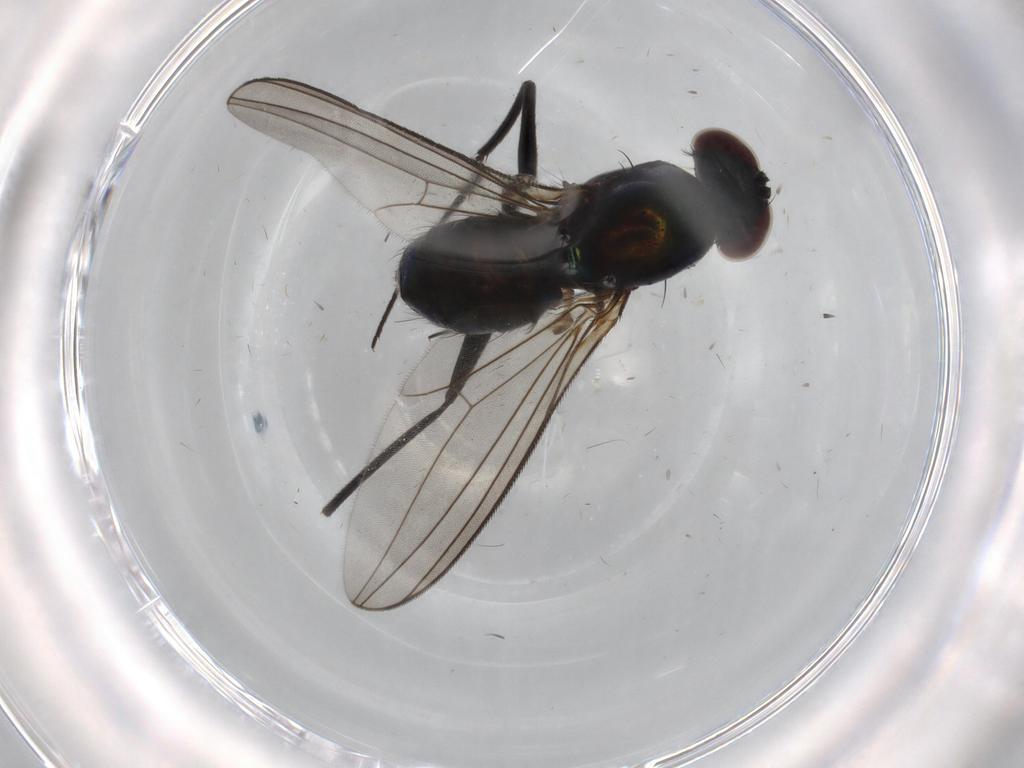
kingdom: Animalia
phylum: Arthropoda
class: Insecta
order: Diptera
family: Dolichopodidae
